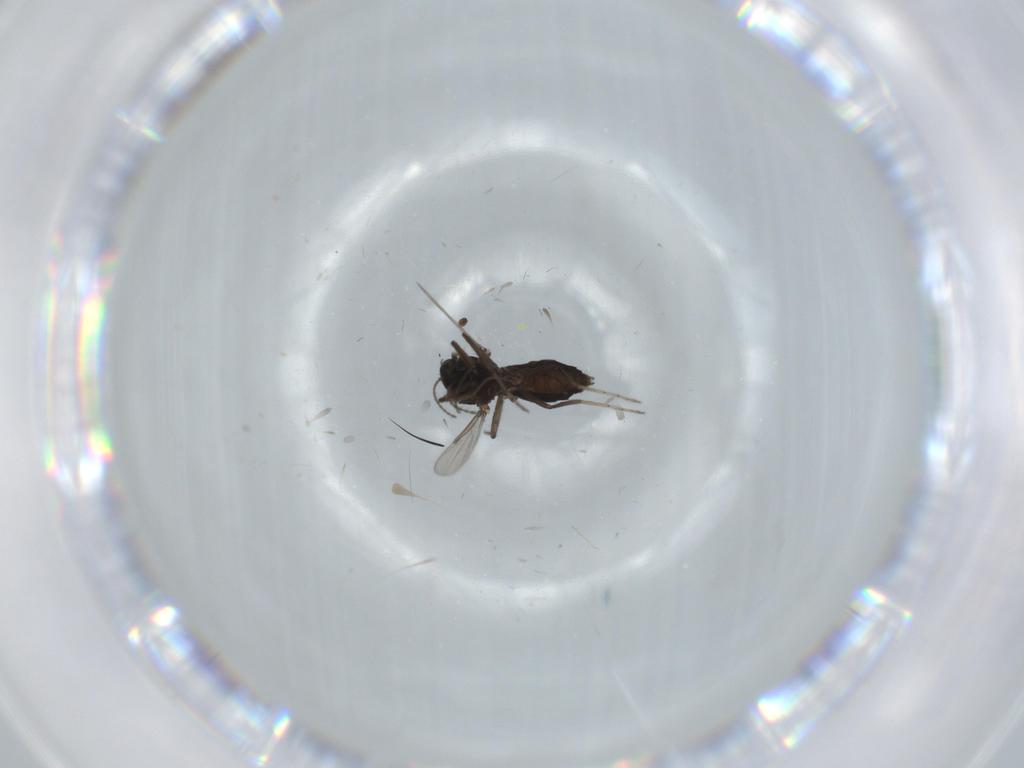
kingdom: Animalia
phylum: Arthropoda
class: Insecta
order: Diptera
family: Ceratopogonidae
